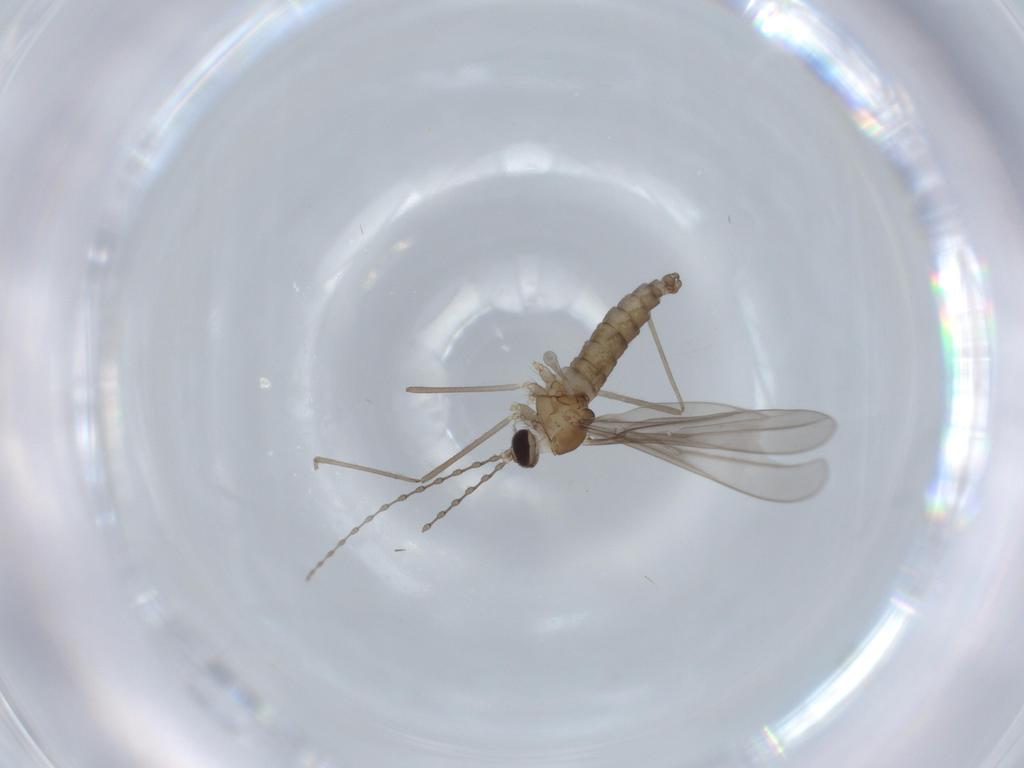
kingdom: Animalia
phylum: Arthropoda
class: Insecta
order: Diptera
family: Cecidomyiidae
